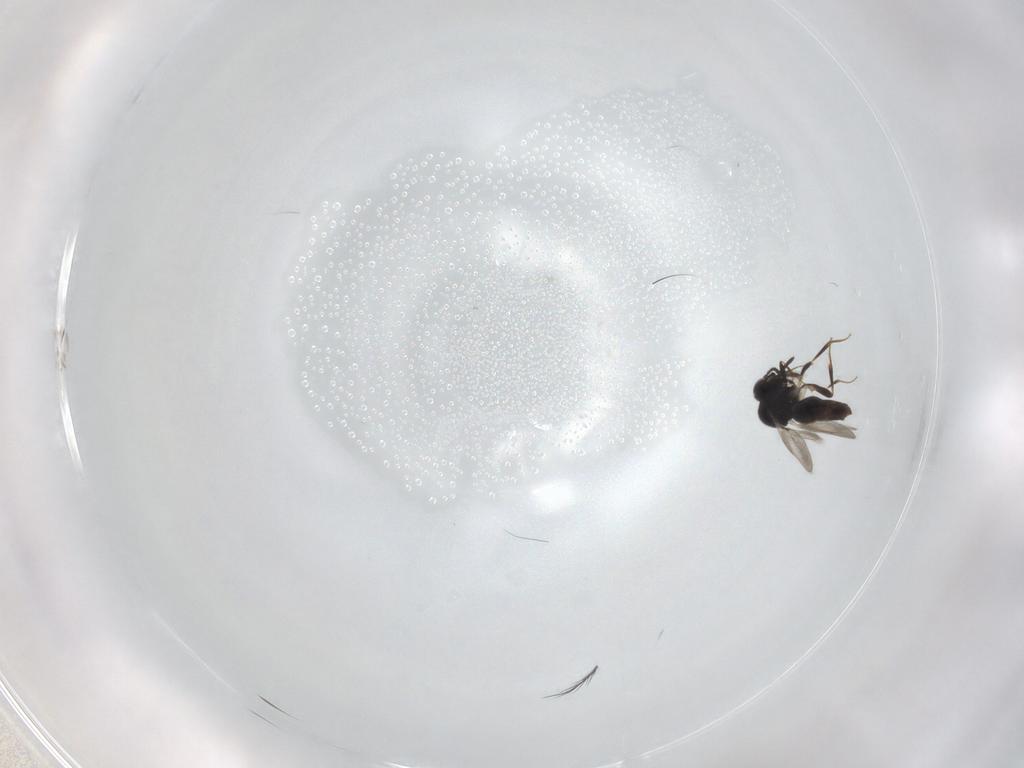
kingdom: Animalia
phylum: Arthropoda
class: Insecta
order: Hymenoptera
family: Ceraphronidae
